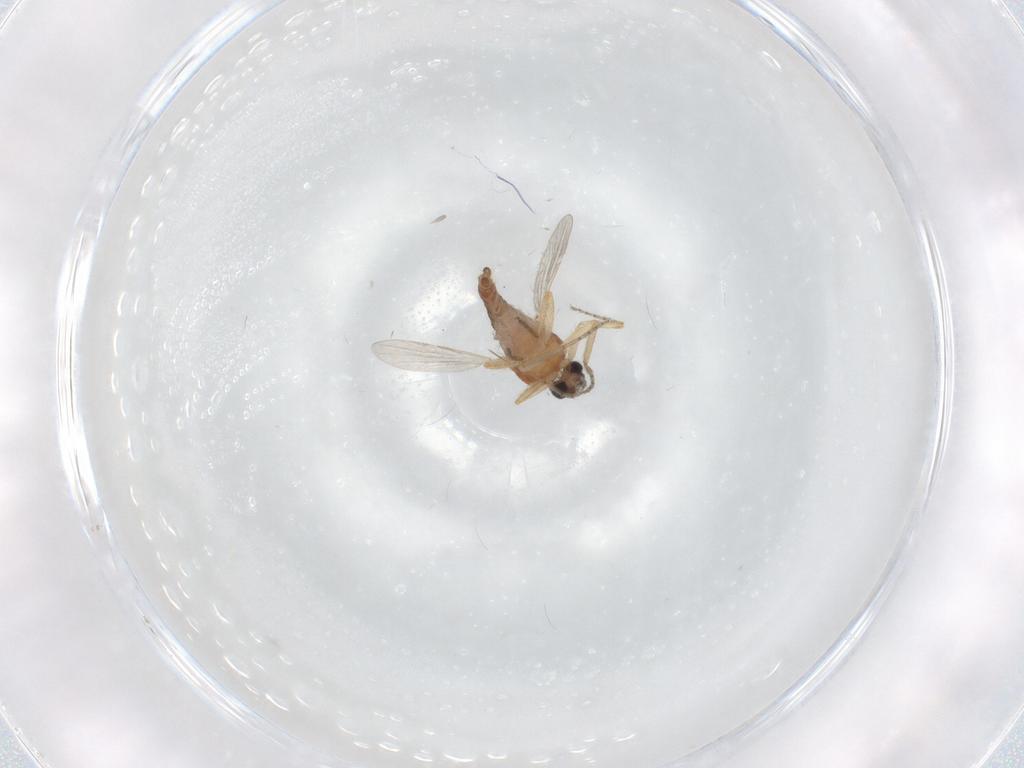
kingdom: Animalia
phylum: Arthropoda
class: Insecta
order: Diptera
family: Ceratopogonidae
